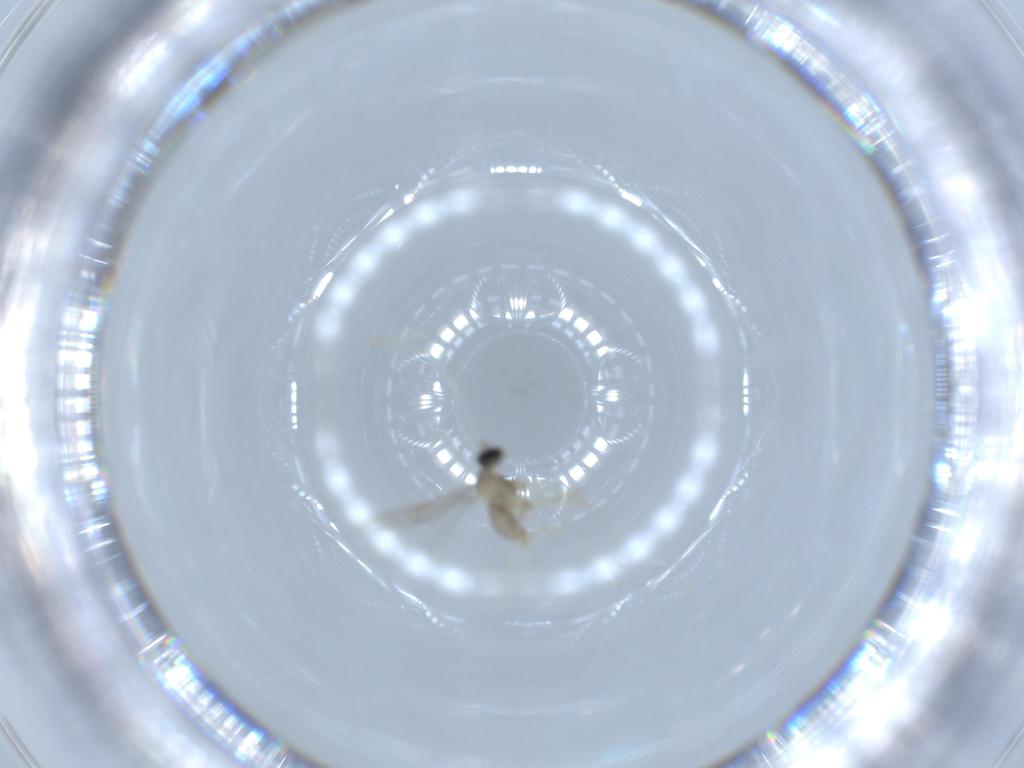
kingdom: Animalia
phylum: Arthropoda
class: Insecta
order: Diptera
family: Cecidomyiidae
